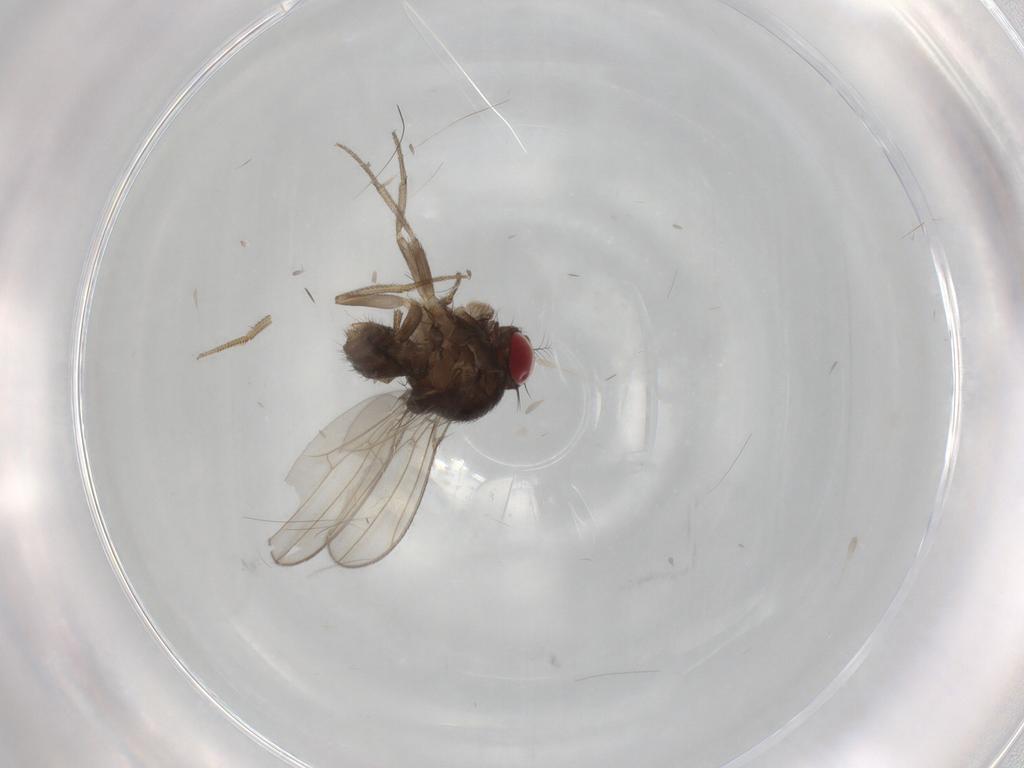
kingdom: Animalia
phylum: Arthropoda
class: Insecta
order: Diptera
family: Drosophilidae
